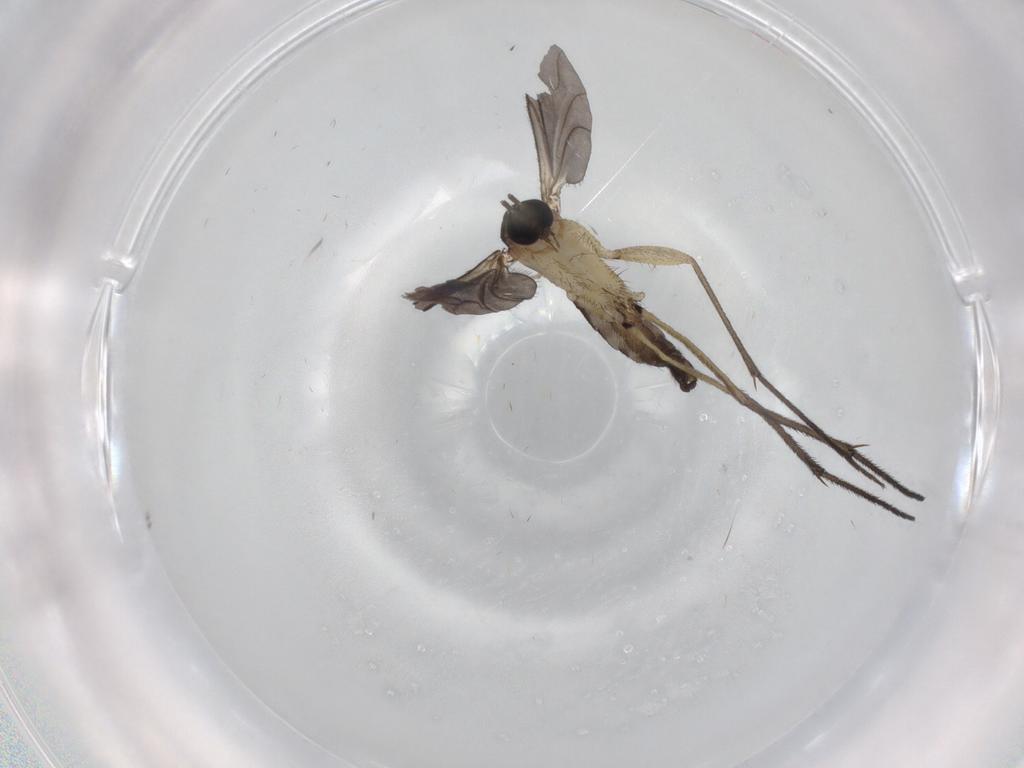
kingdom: Animalia
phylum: Arthropoda
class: Insecta
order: Diptera
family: Sciaridae
